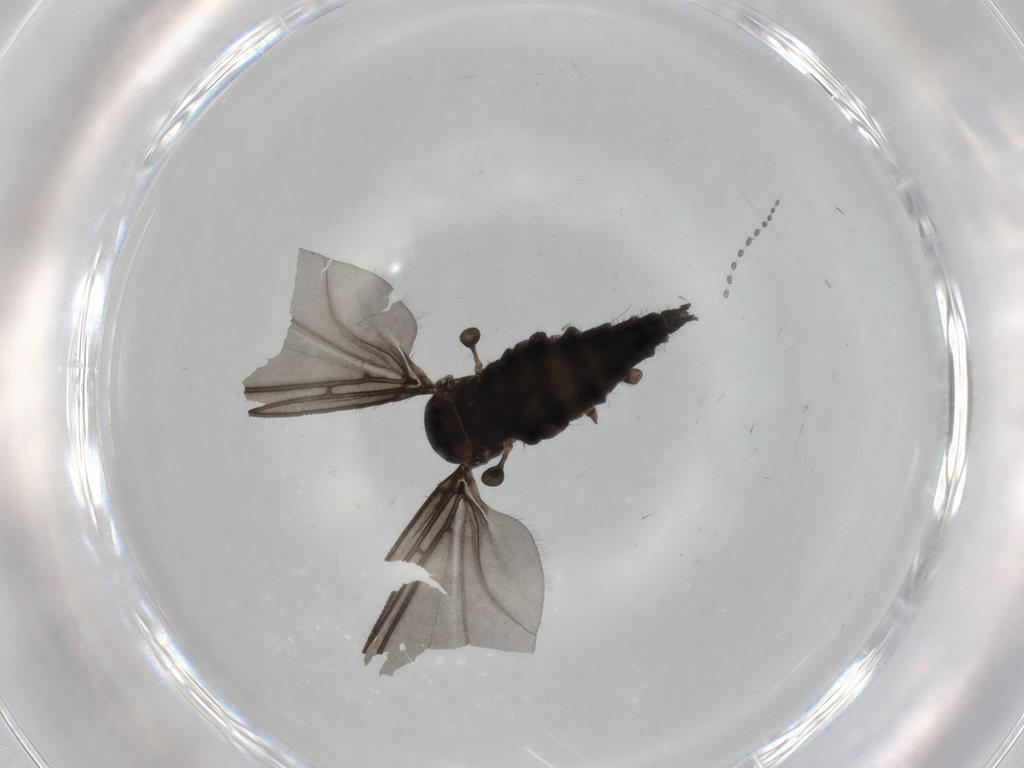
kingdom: Animalia
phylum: Arthropoda
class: Insecta
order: Diptera
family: Sciaridae
